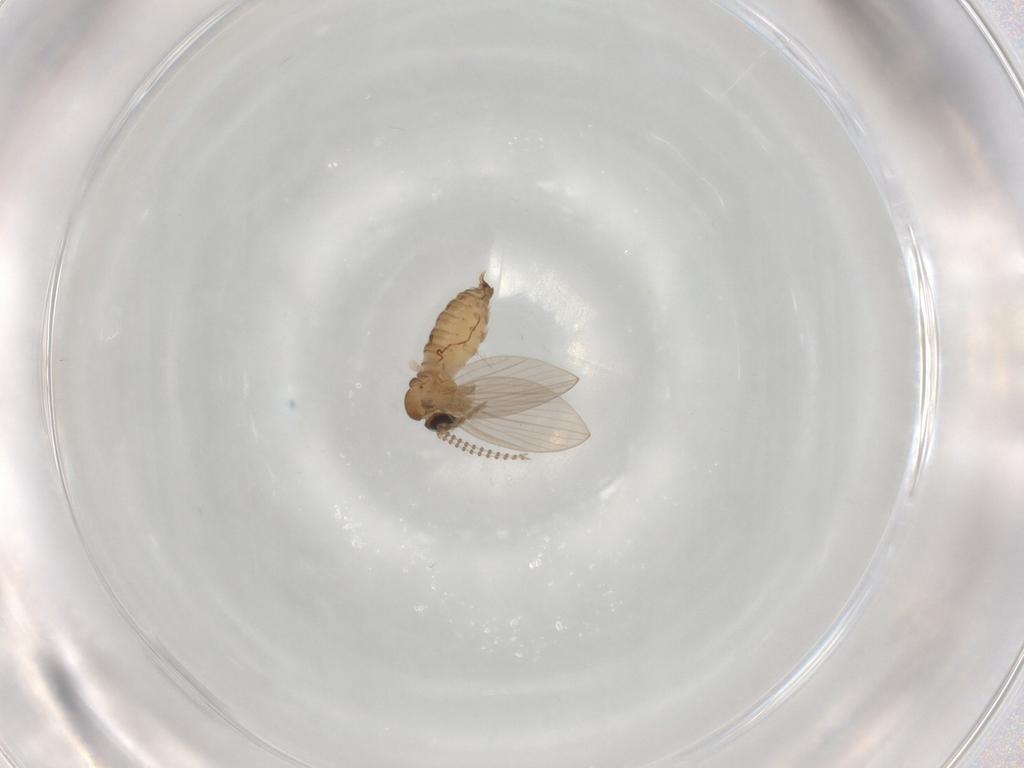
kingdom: Animalia
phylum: Arthropoda
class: Insecta
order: Diptera
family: Psychodidae
